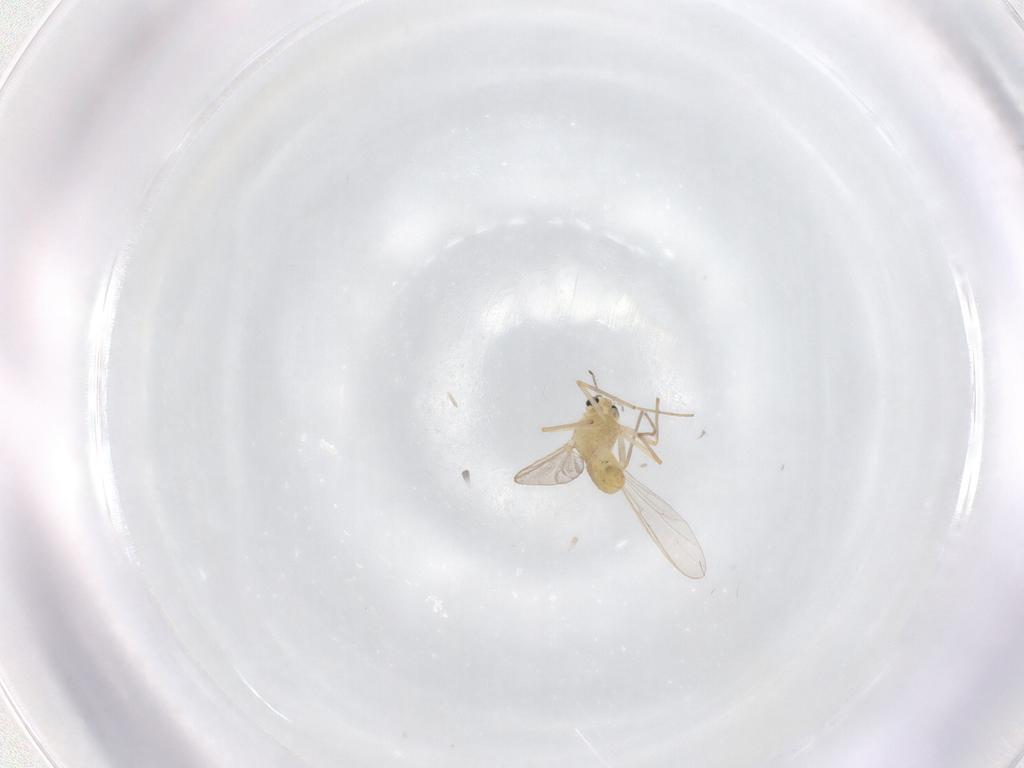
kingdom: Animalia
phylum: Arthropoda
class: Insecta
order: Diptera
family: Chironomidae
